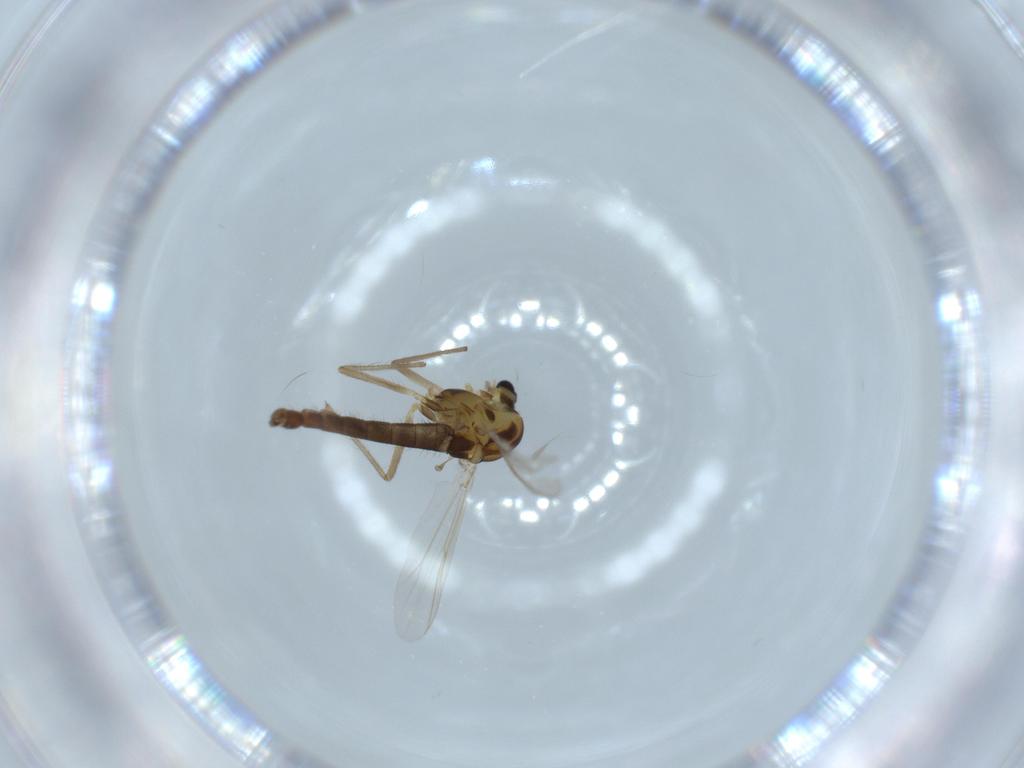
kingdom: Animalia
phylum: Arthropoda
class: Insecta
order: Diptera
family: Chironomidae
